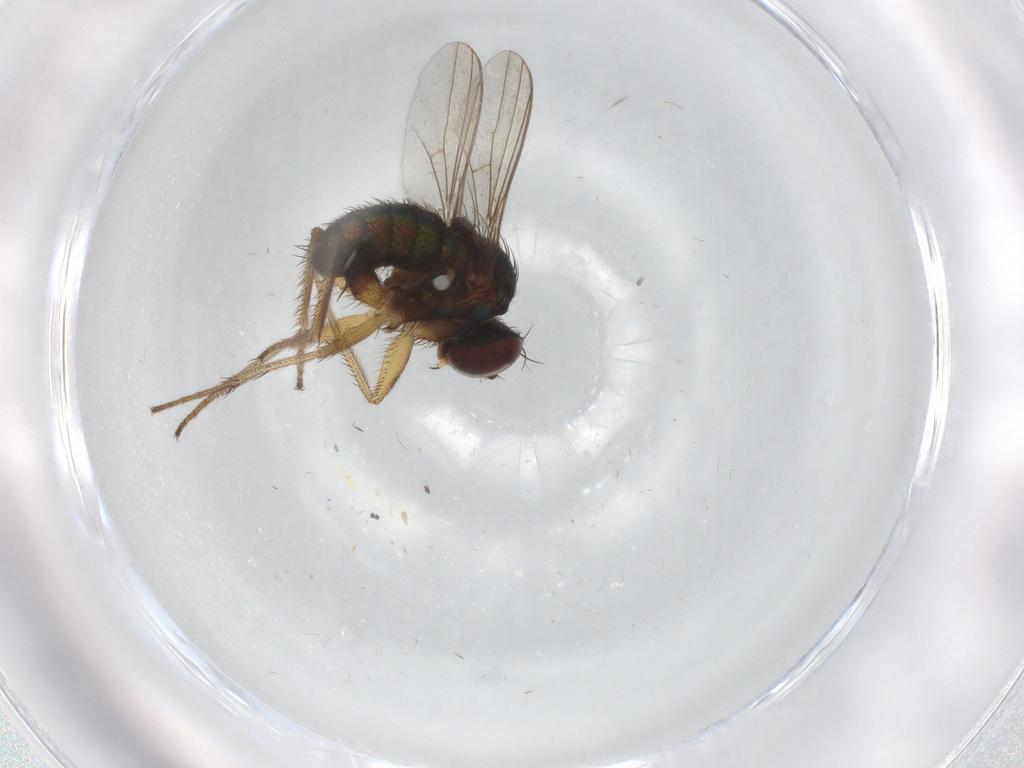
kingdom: Animalia
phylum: Arthropoda
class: Insecta
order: Diptera
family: Dolichopodidae
